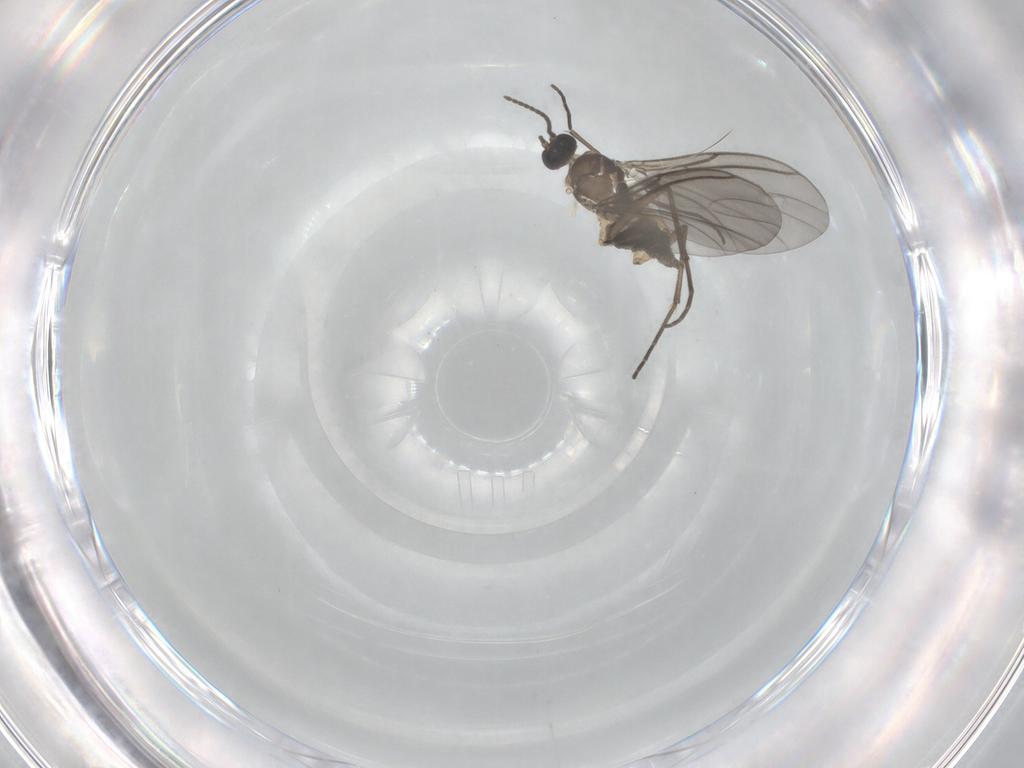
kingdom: Animalia
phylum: Arthropoda
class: Insecta
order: Diptera
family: Sciaridae
